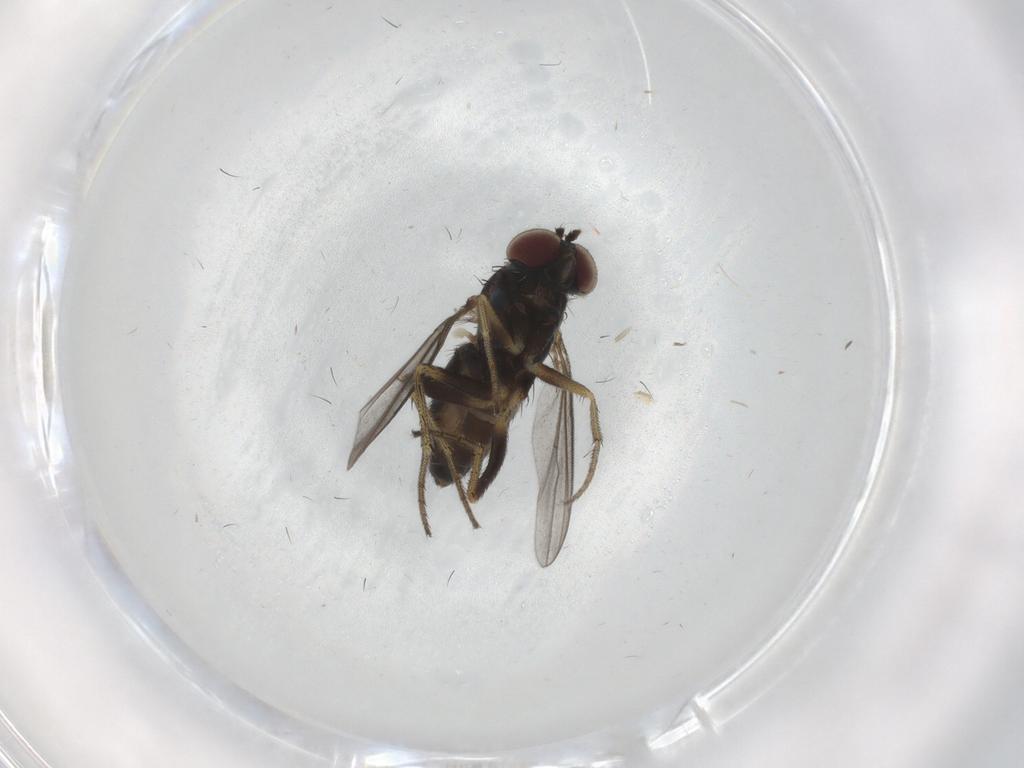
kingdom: Animalia
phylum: Arthropoda
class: Insecta
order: Diptera
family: Dolichopodidae
